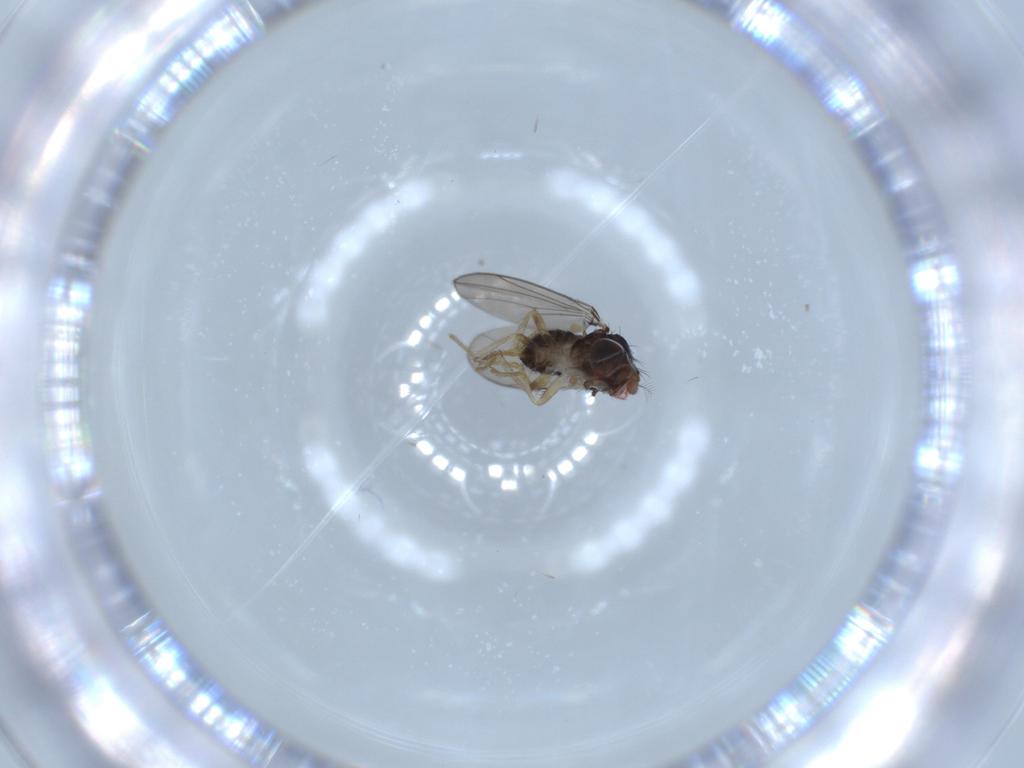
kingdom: Animalia
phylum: Arthropoda
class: Insecta
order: Diptera
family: Drosophilidae
